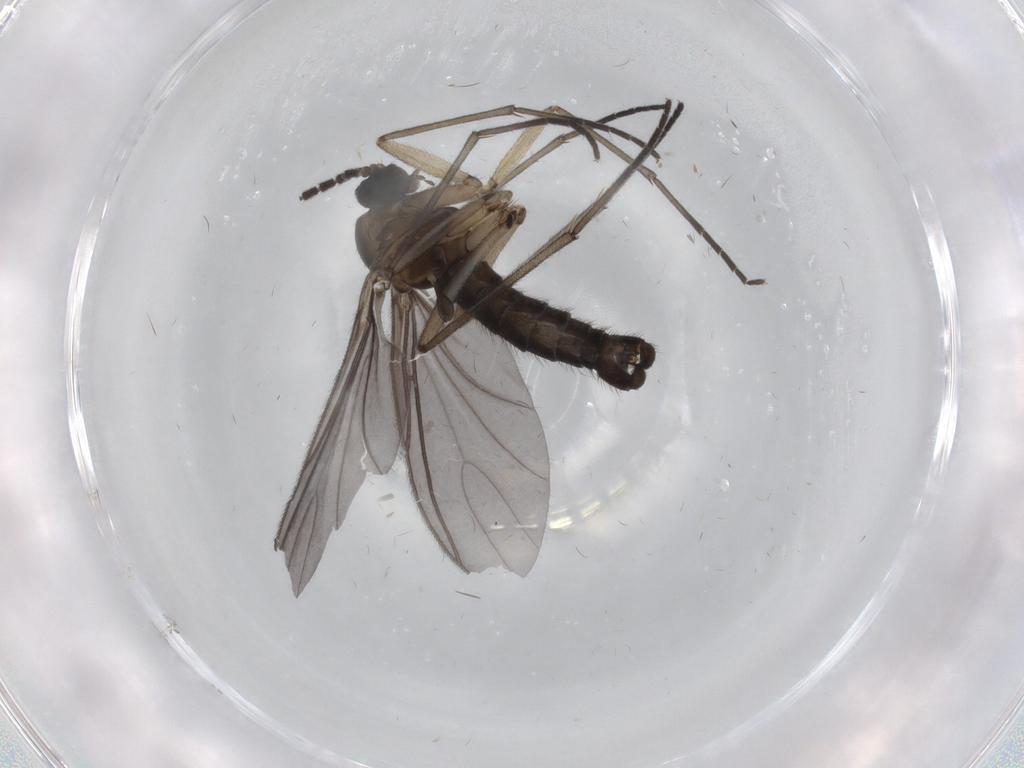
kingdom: Animalia
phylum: Arthropoda
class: Insecta
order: Diptera
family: Sciaridae
